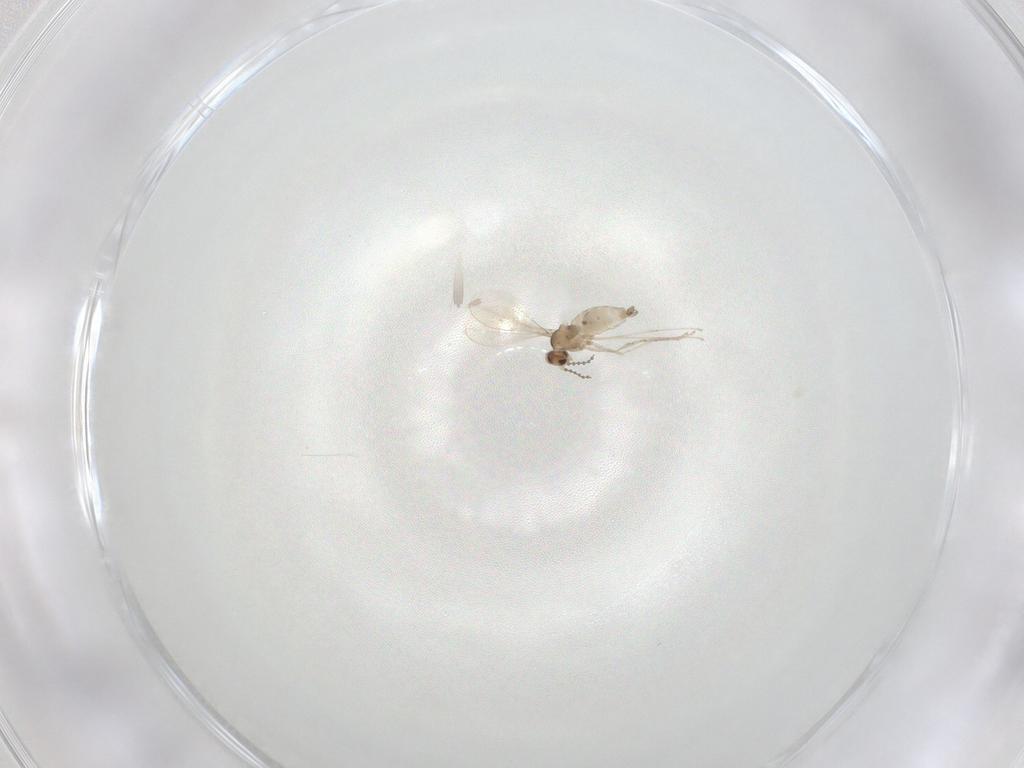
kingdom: Animalia
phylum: Arthropoda
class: Insecta
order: Diptera
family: Cecidomyiidae
